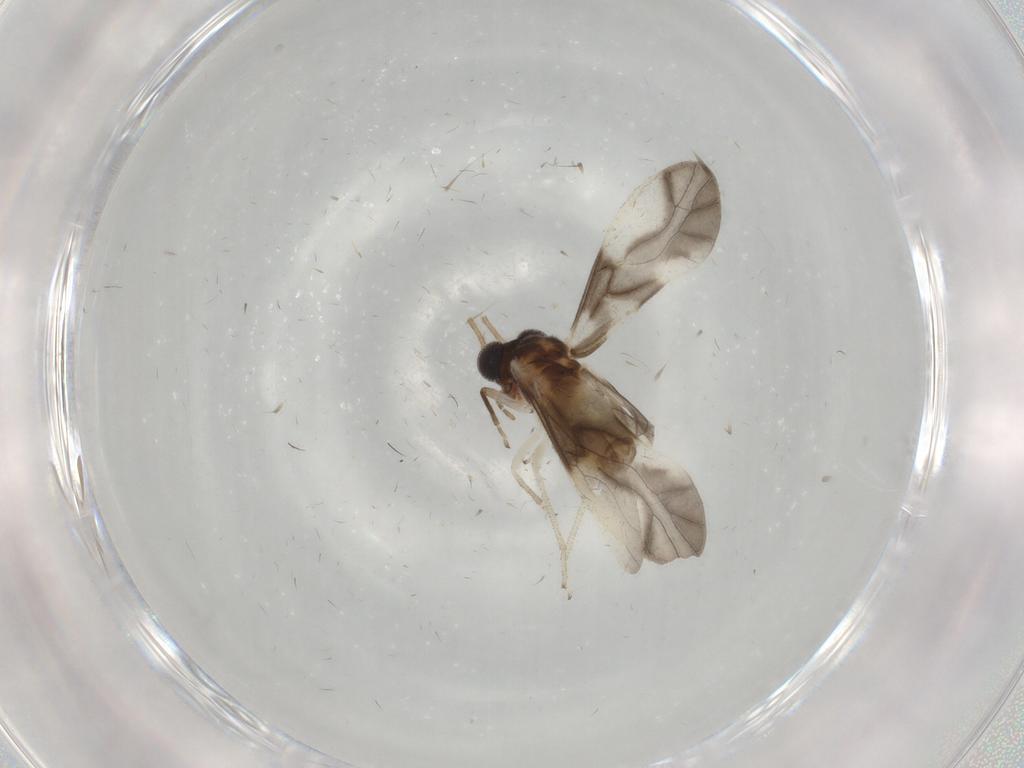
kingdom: Animalia
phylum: Arthropoda
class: Insecta
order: Psocodea
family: Caeciliusidae
